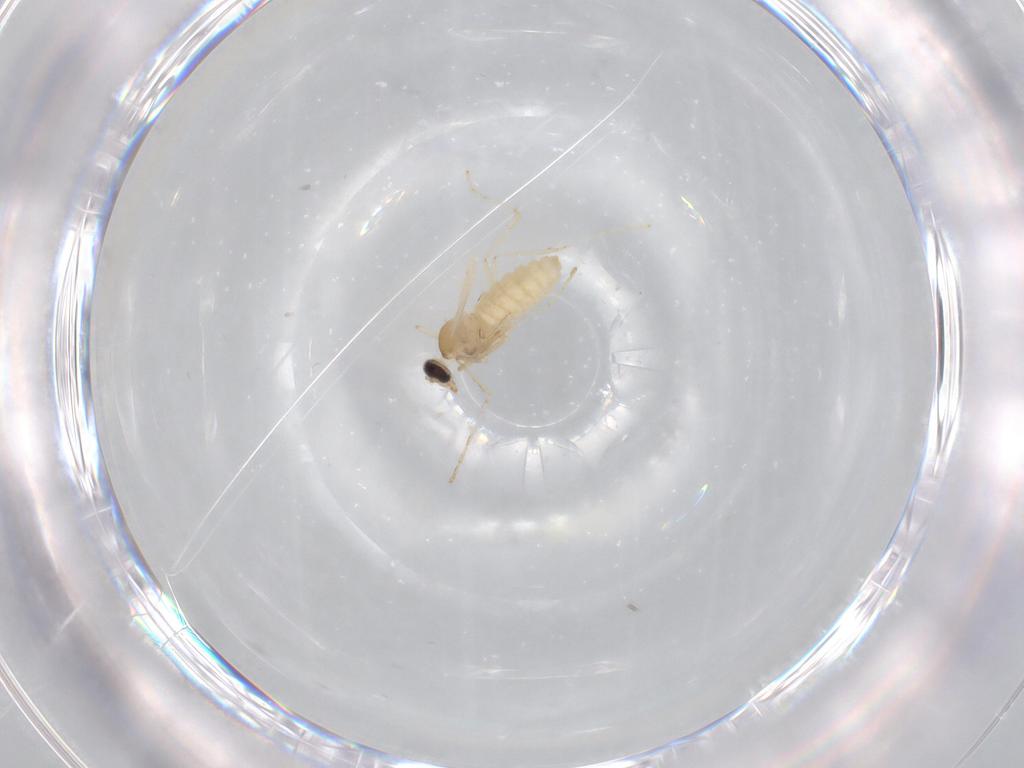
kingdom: Animalia
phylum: Arthropoda
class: Insecta
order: Diptera
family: Cecidomyiidae
